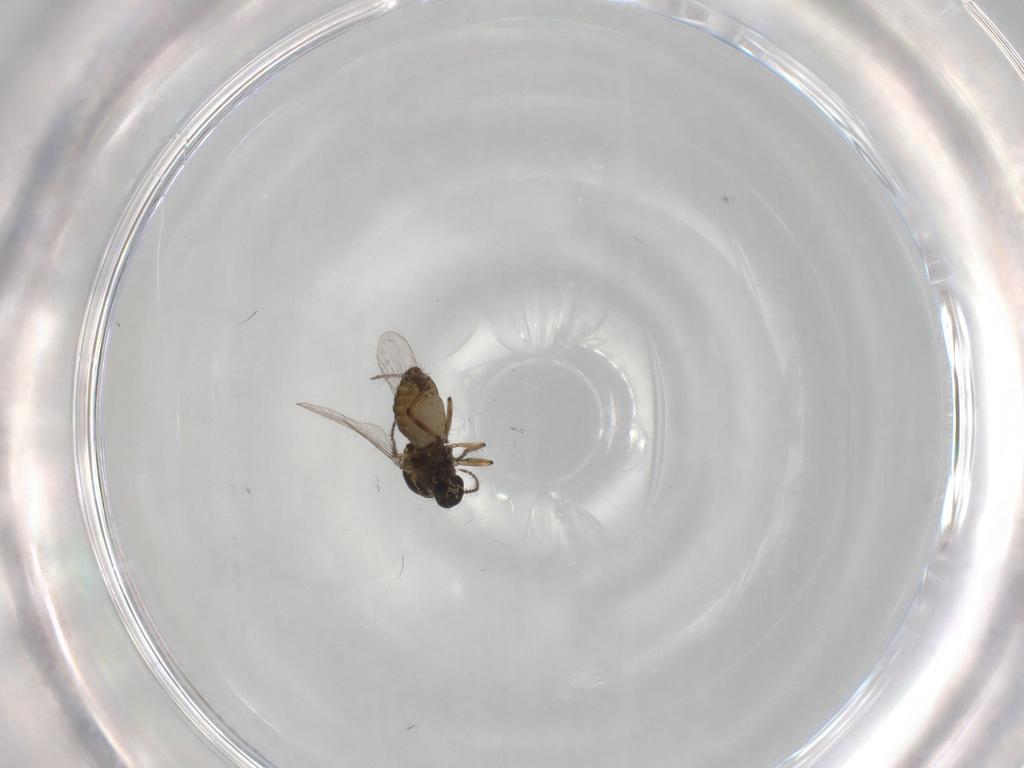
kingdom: Animalia
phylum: Arthropoda
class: Insecta
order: Diptera
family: Ceratopogonidae
